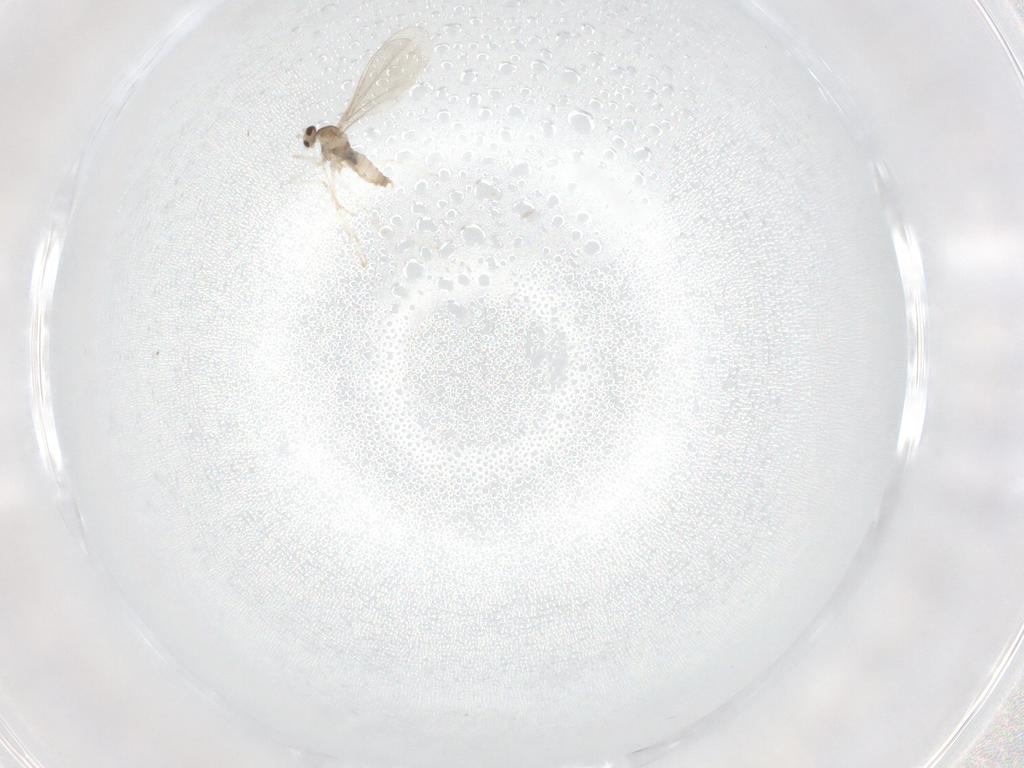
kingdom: Animalia
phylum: Arthropoda
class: Insecta
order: Diptera
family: Cecidomyiidae
